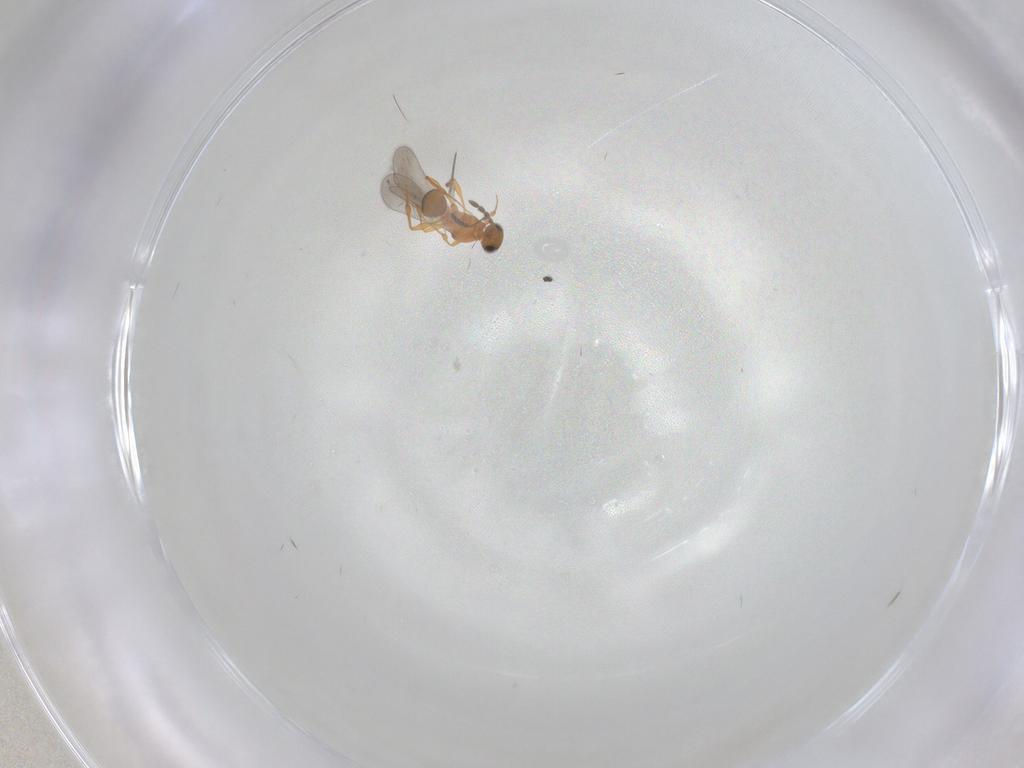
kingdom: Animalia
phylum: Arthropoda
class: Insecta
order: Hymenoptera
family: Platygastridae
